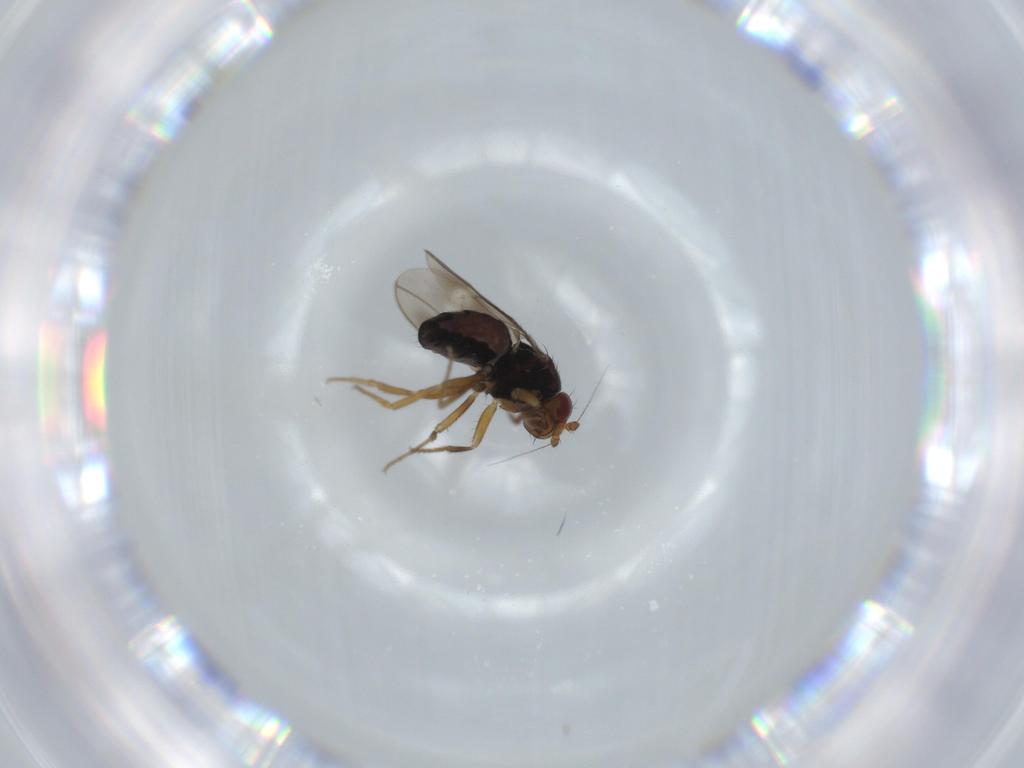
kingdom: Animalia
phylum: Arthropoda
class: Insecta
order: Diptera
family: Sphaeroceridae
